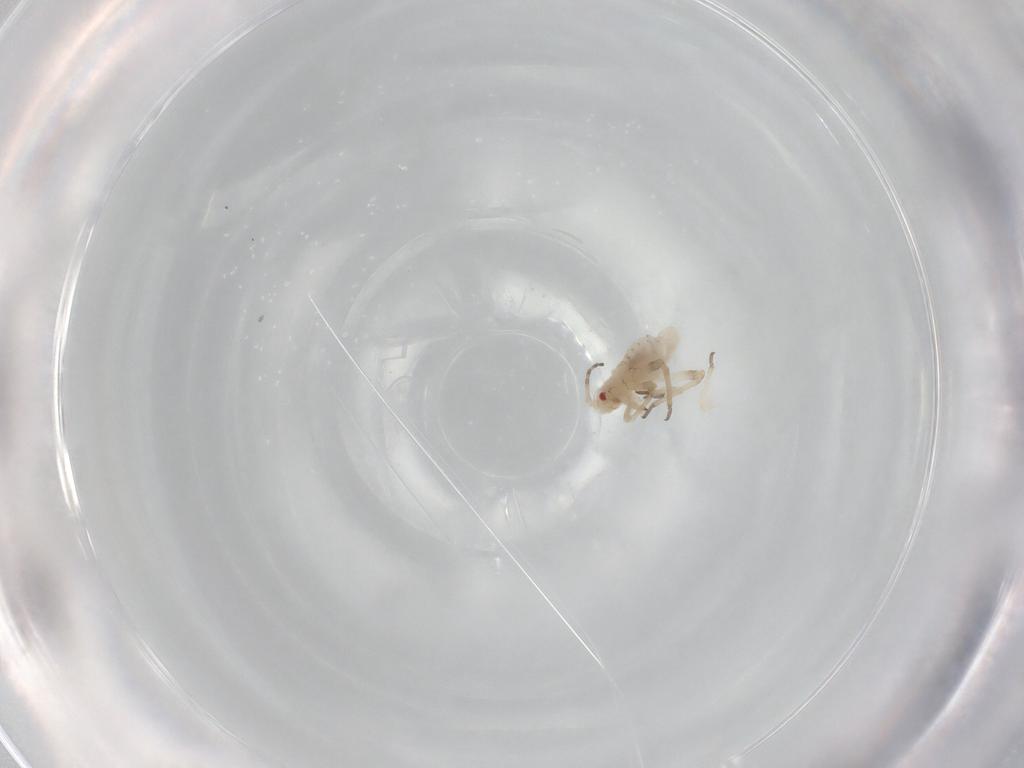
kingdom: Animalia
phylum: Arthropoda
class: Insecta
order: Hemiptera
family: Aphididae
